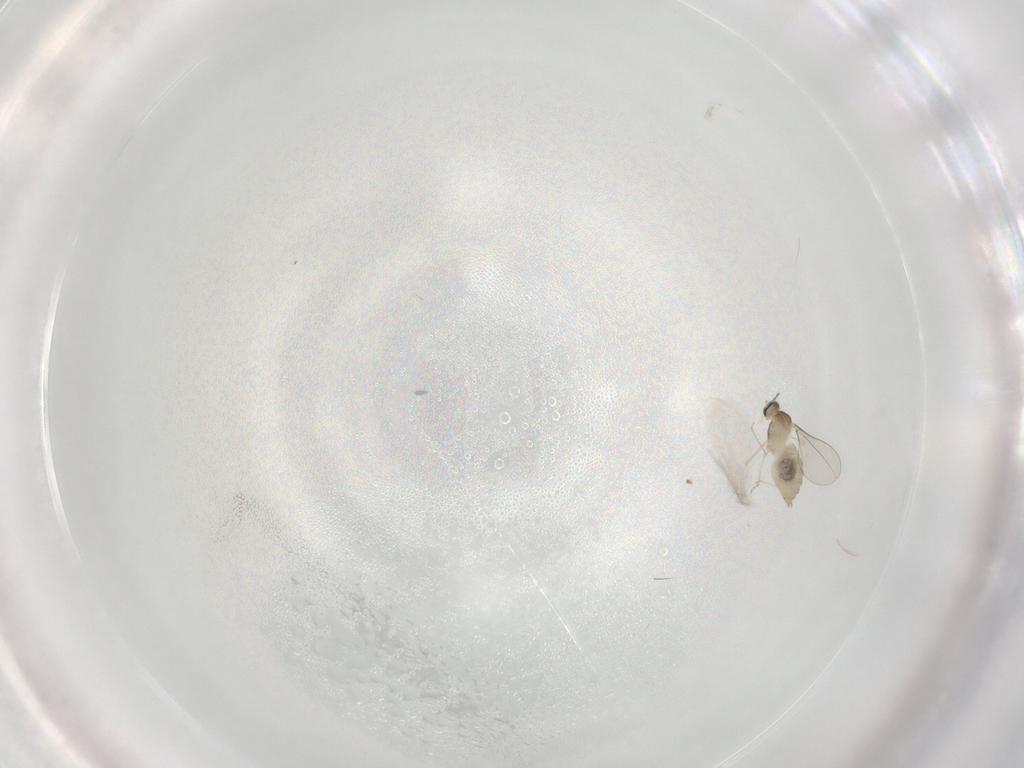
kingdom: Animalia
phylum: Arthropoda
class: Insecta
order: Diptera
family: Cecidomyiidae
